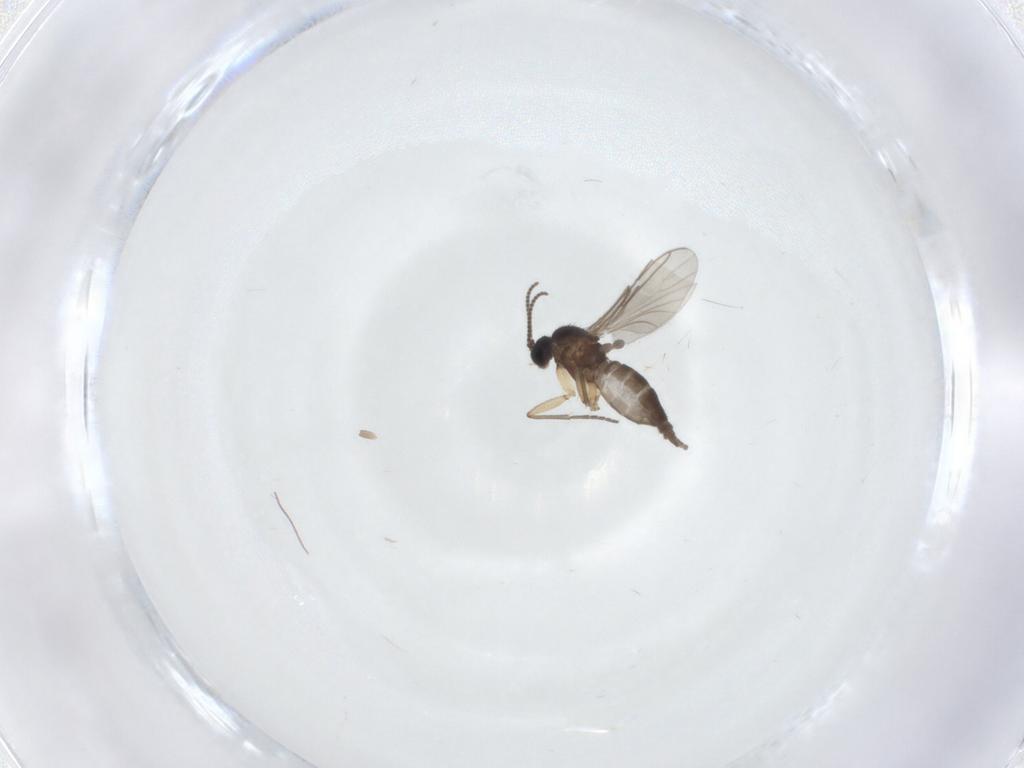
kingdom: Animalia
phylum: Arthropoda
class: Insecta
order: Diptera
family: Sciaridae
